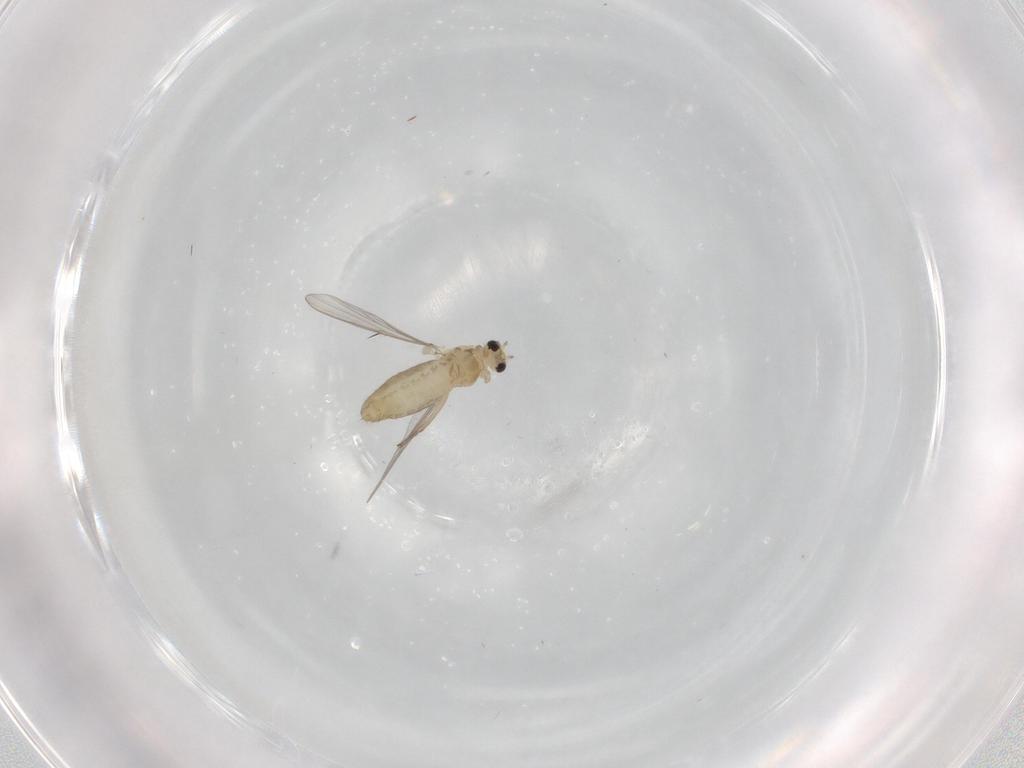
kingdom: Animalia
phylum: Arthropoda
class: Insecta
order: Diptera
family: Chironomidae
